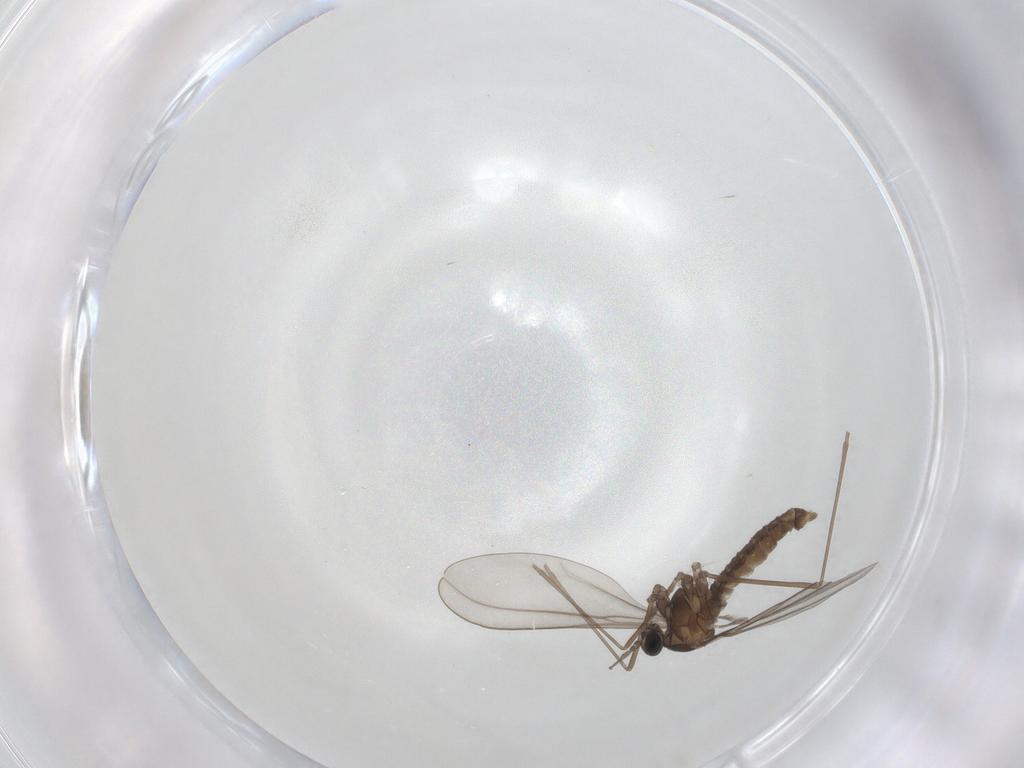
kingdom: Animalia
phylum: Arthropoda
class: Insecta
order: Diptera
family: Cecidomyiidae
